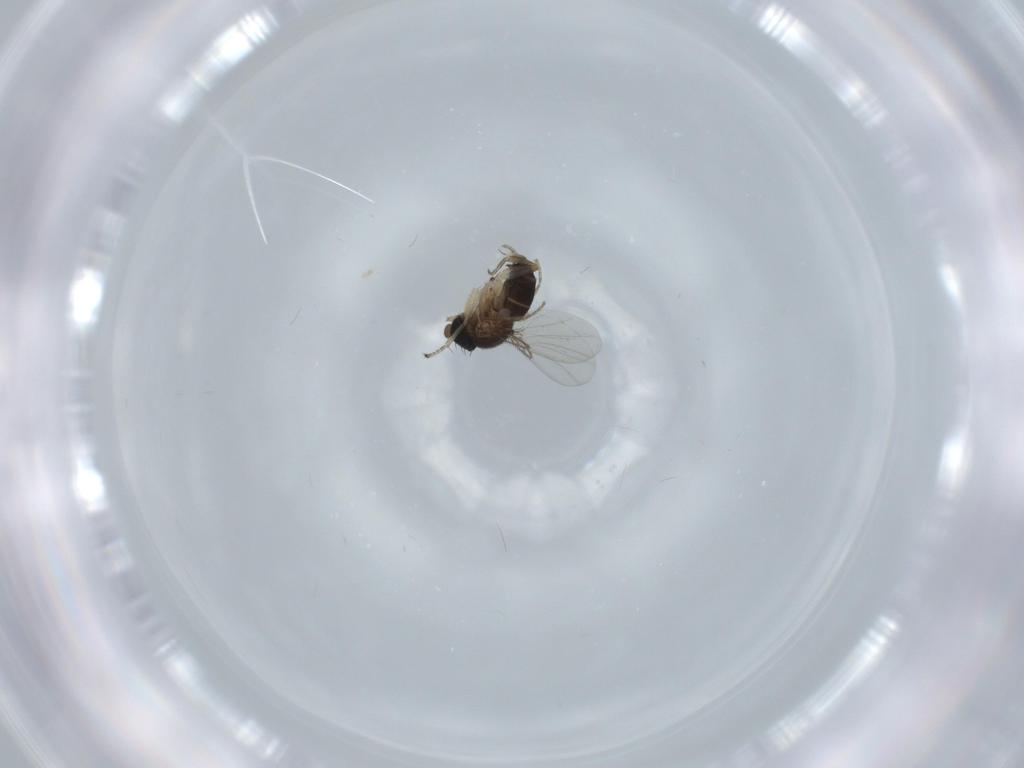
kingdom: Animalia
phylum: Arthropoda
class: Insecta
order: Diptera
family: Phoridae
